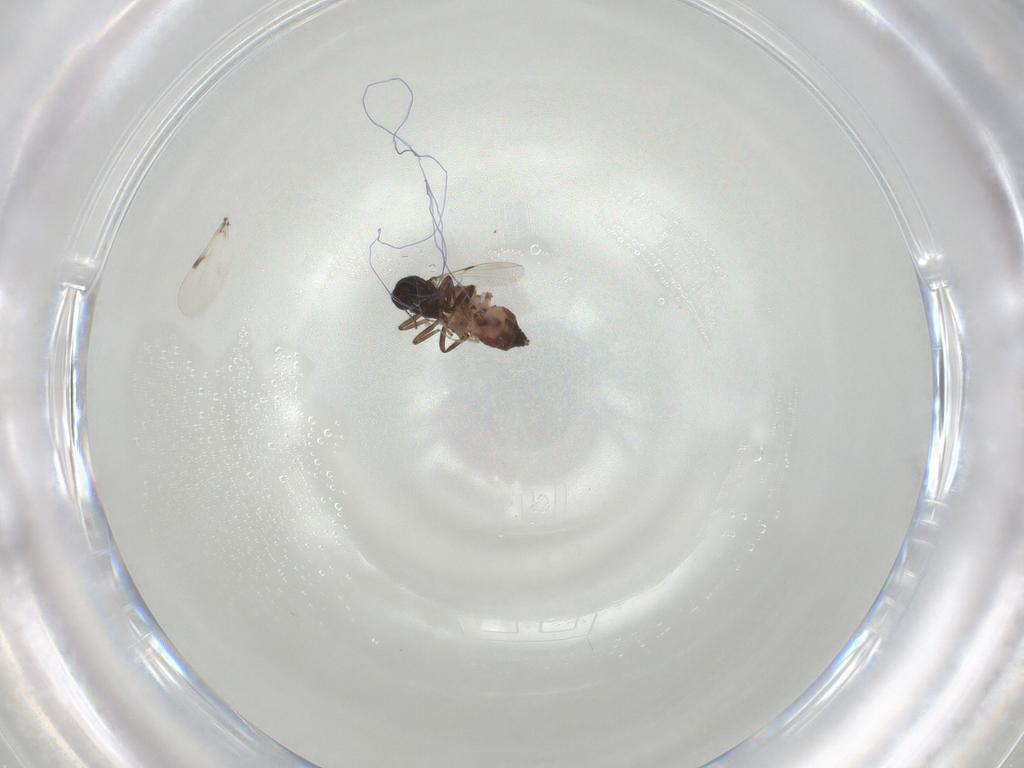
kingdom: Animalia
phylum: Arthropoda
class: Insecta
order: Diptera
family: Ceratopogonidae
